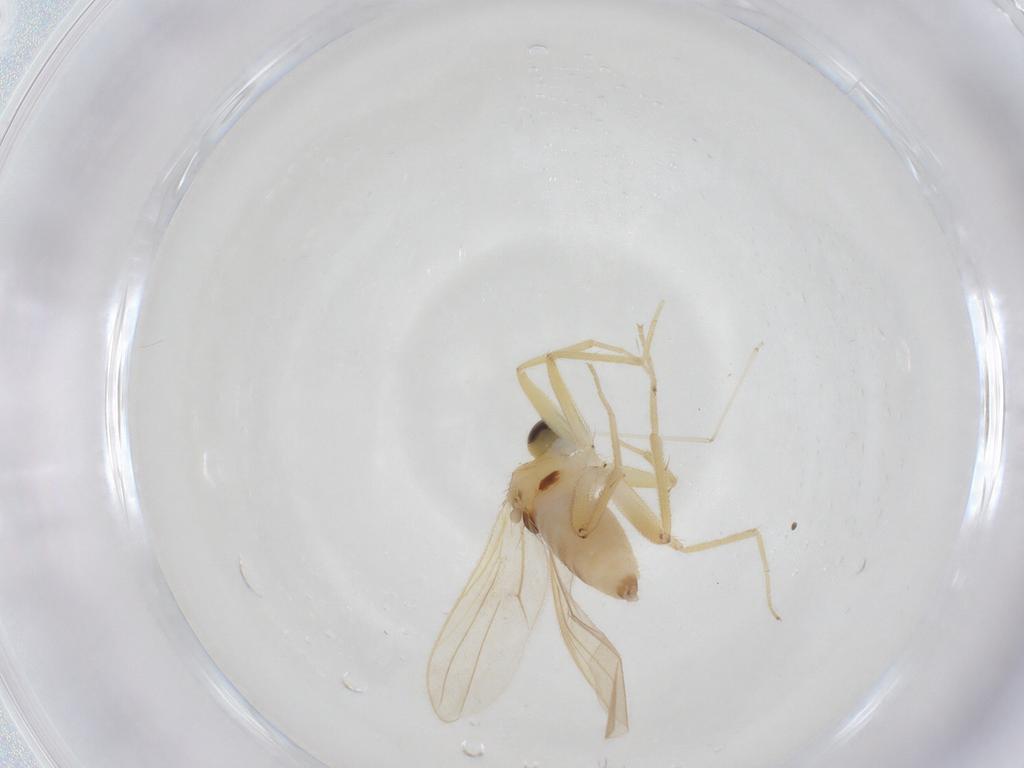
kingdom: Animalia
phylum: Arthropoda
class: Insecta
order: Diptera
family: Cecidomyiidae
